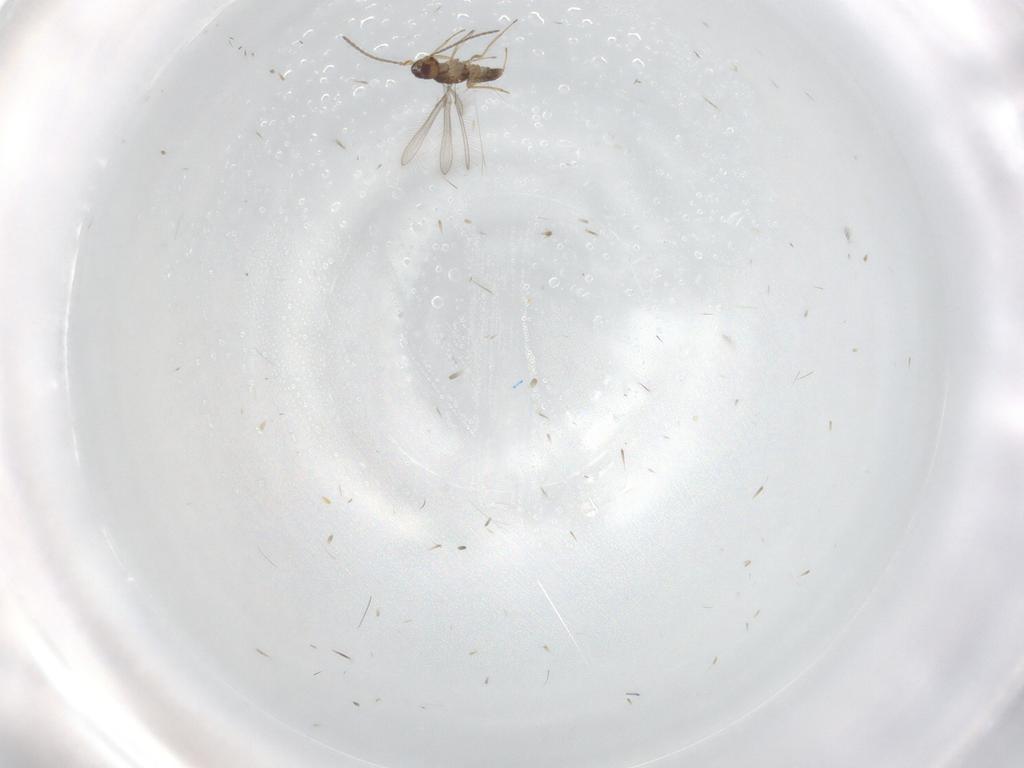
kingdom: Animalia
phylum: Arthropoda
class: Insecta
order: Hymenoptera
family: Mymaridae
